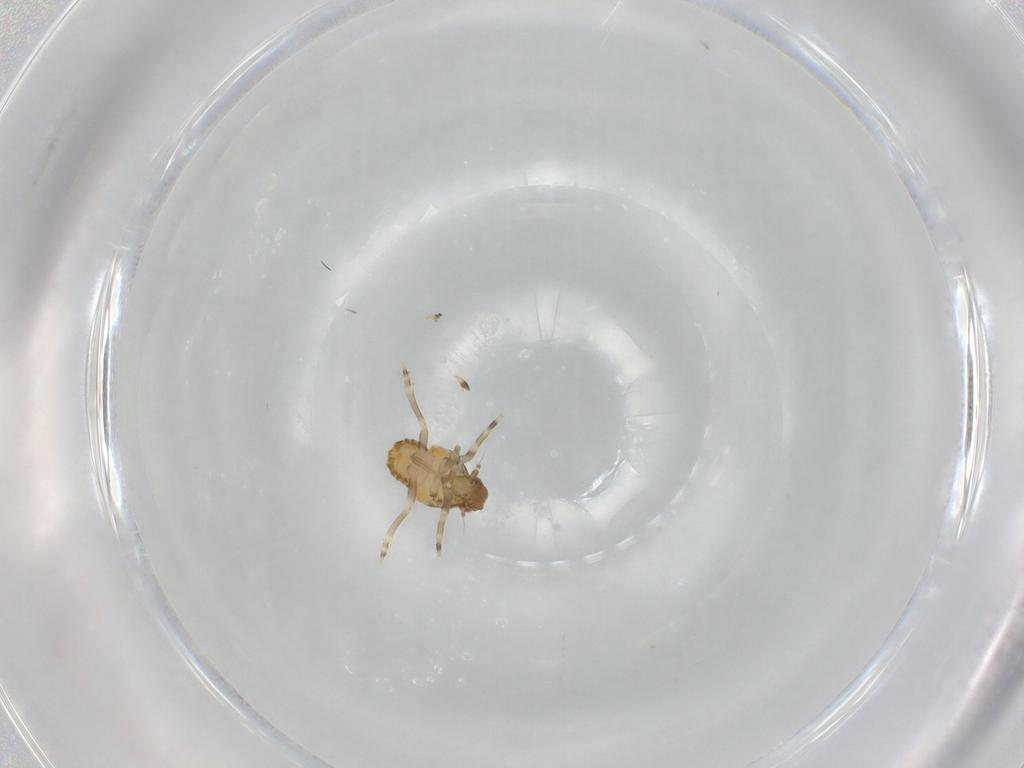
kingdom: Animalia
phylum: Arthropoda
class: Insecta
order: Hemiptera
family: Flatidae
